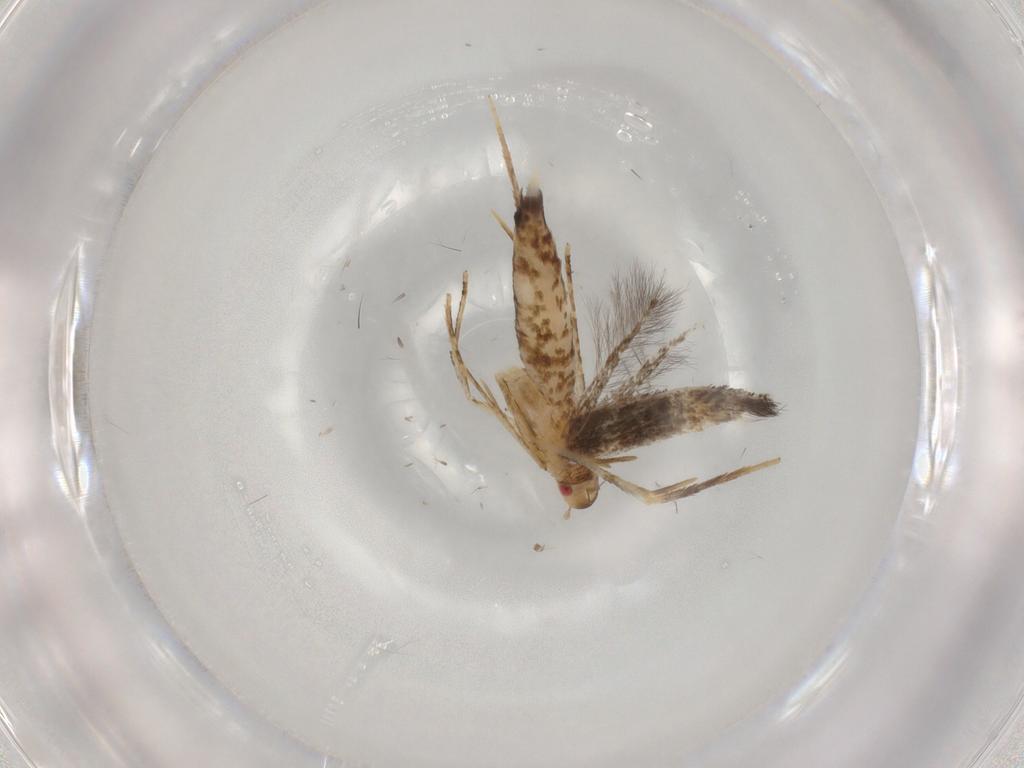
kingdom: Animalia
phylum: Arthropoda
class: Insecta
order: Lepidoptera
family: Cosmopterigidae
